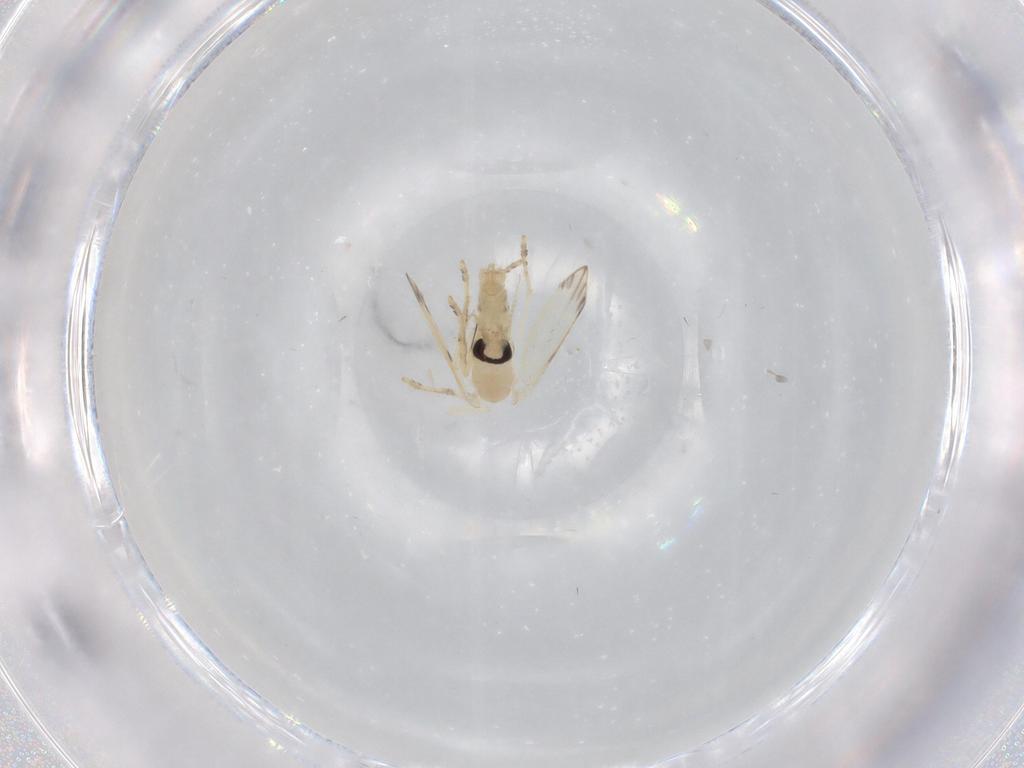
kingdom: Animalia
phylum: Arthropoda
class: Insecta
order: Diptera
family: Psychodidae
